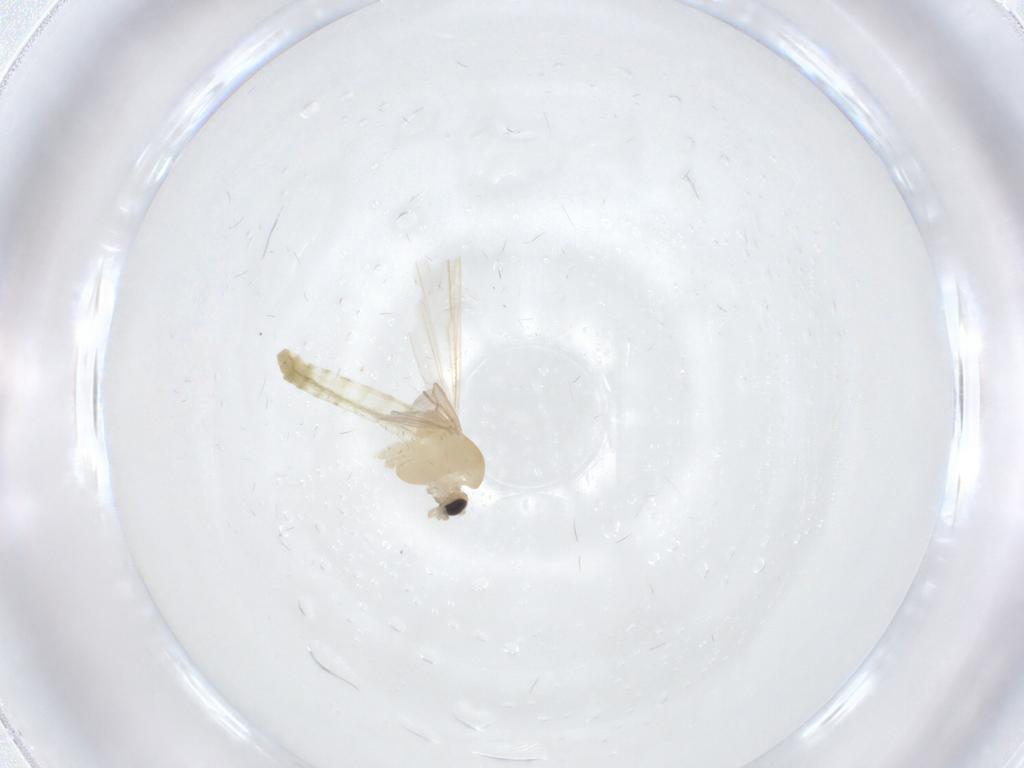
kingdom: Animalia
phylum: Arthropoda
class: Insecta
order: Diptera
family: Chironomidae
